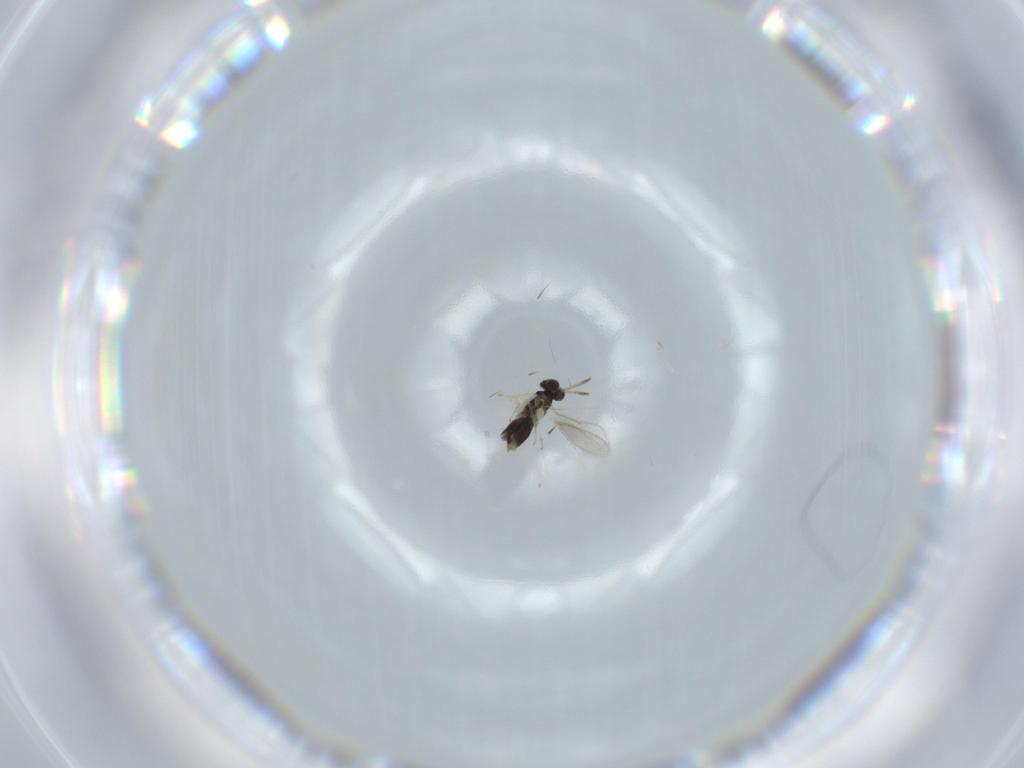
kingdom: Animalia
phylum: Arthropoda
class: Insecta
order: Hymenoptera
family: Aphelinidae
